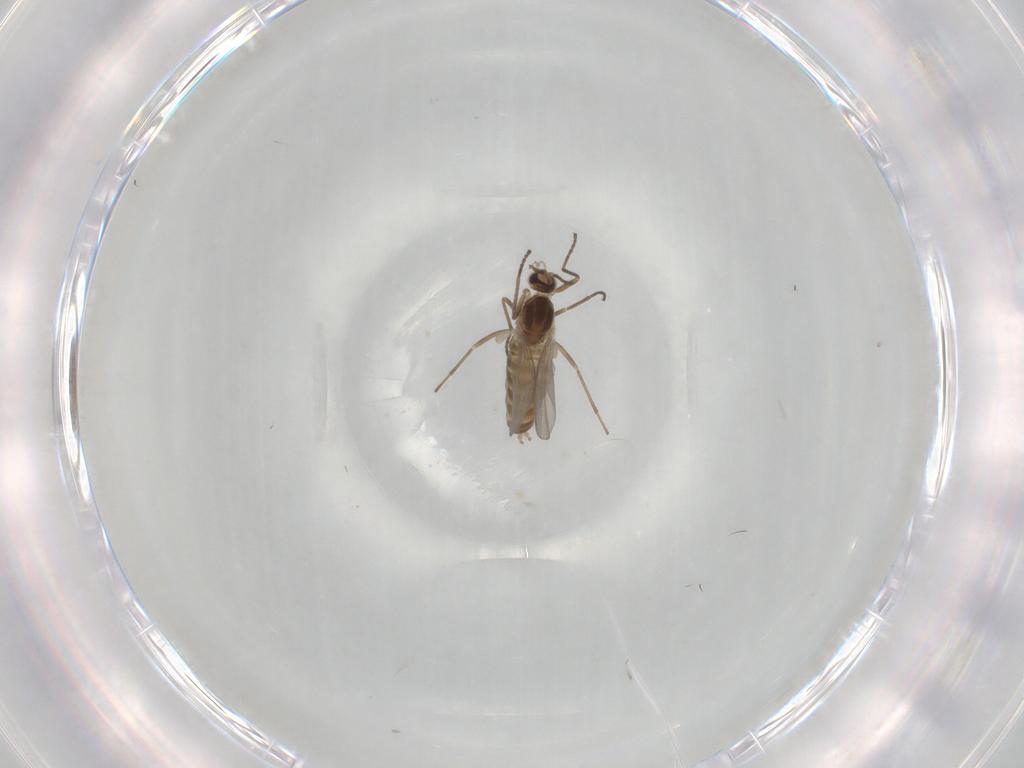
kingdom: Animalia
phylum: Arthropoda
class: Insecta
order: Diptera
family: Cecidomyiidae
